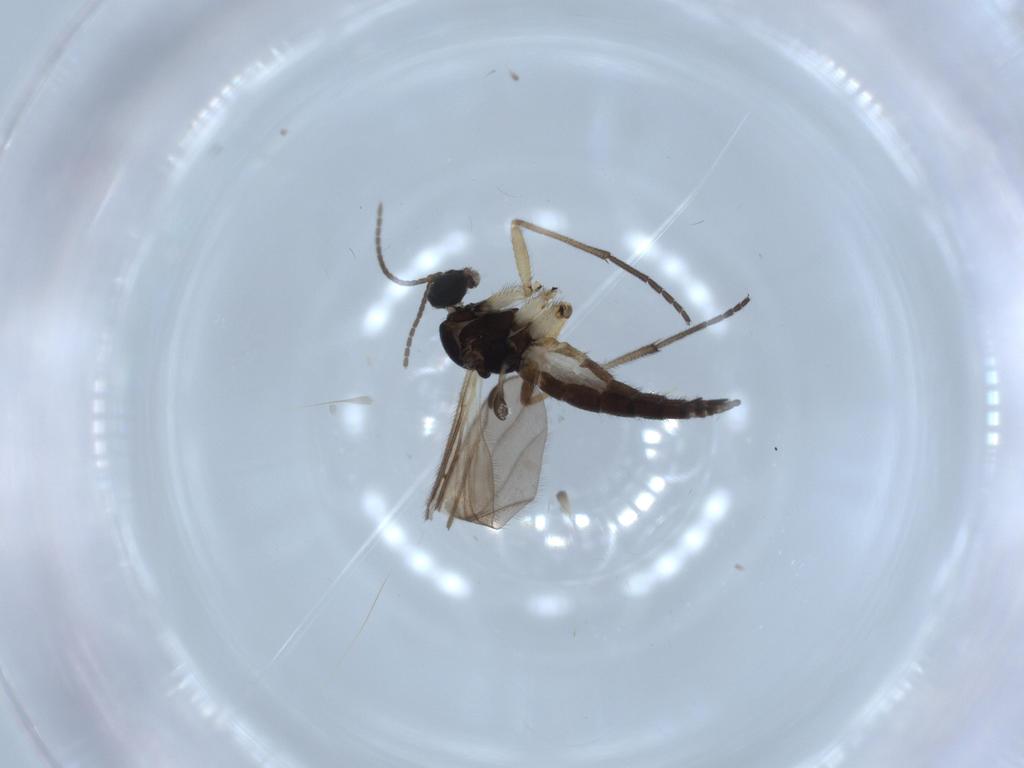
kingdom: Animalia
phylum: Arthropoda
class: Insecta
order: Diptera
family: Sciaridae
